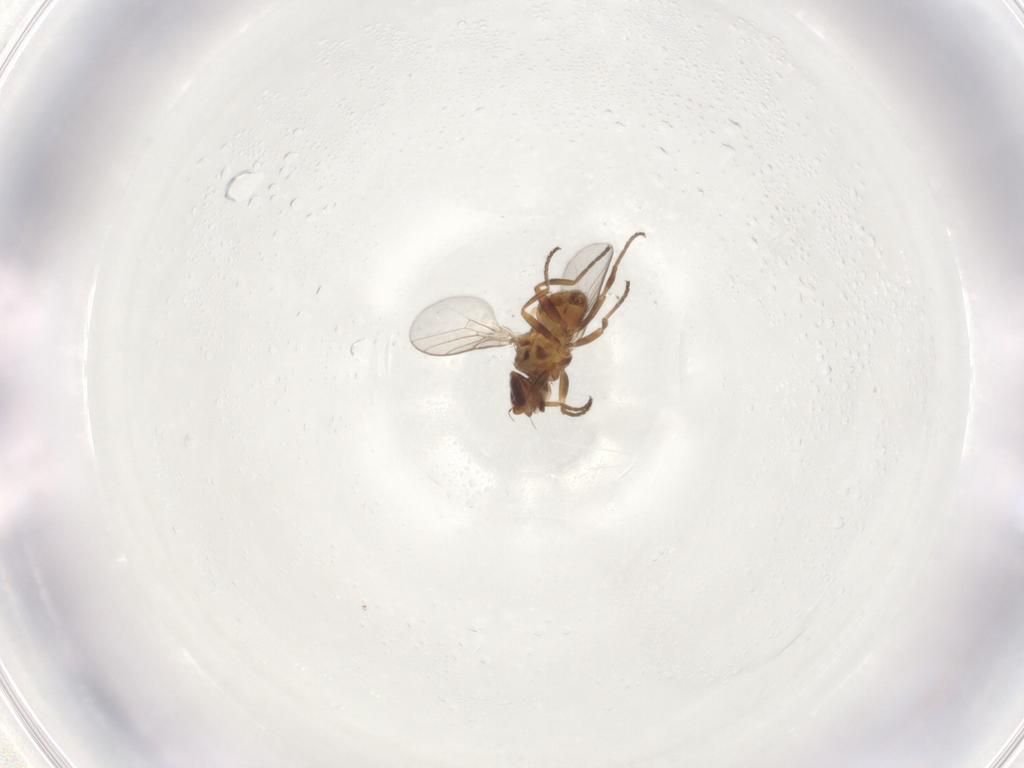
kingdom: Animalia
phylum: Arthropoda
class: Insecta
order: Diptera
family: Chloropidae
